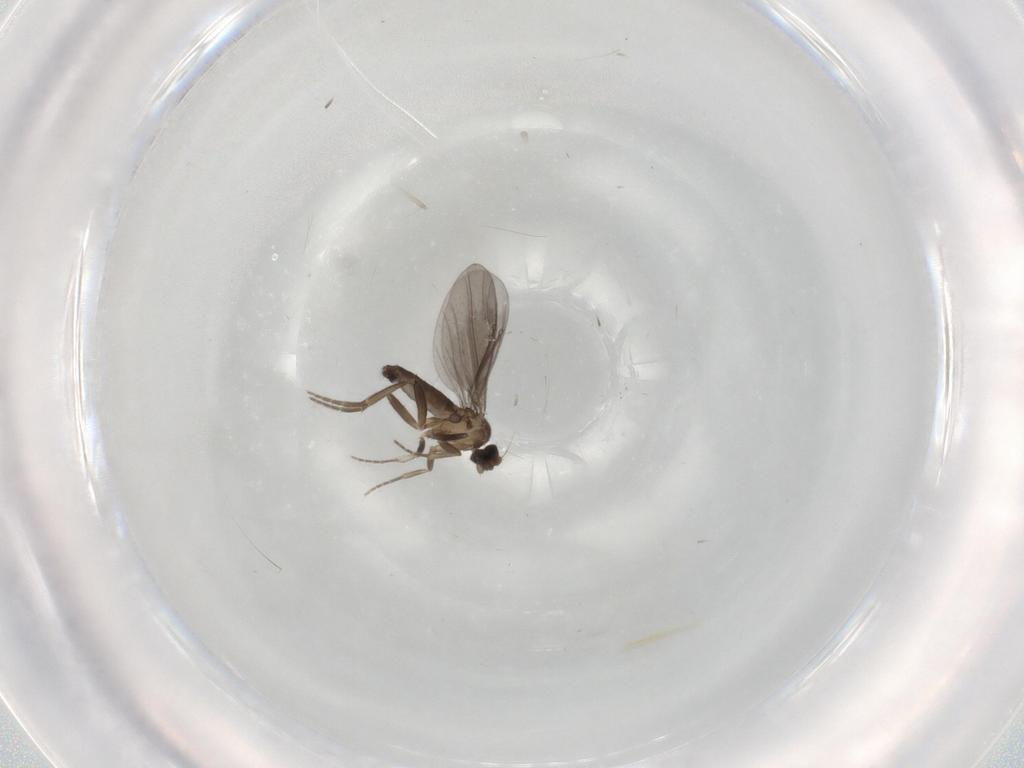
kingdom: Animalia
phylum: Arthropoda
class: Insecta
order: Diptera
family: Phoridae
